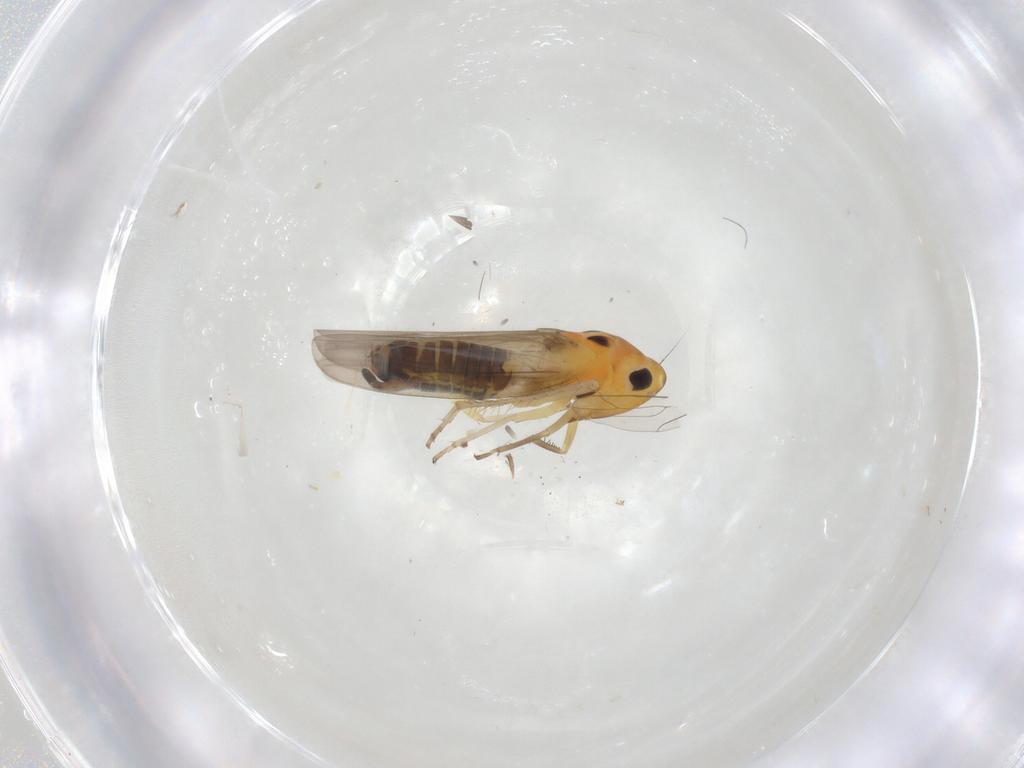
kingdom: Animalia
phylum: Arthropoda
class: Insecta
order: Hemiptera
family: Cicadellidae
